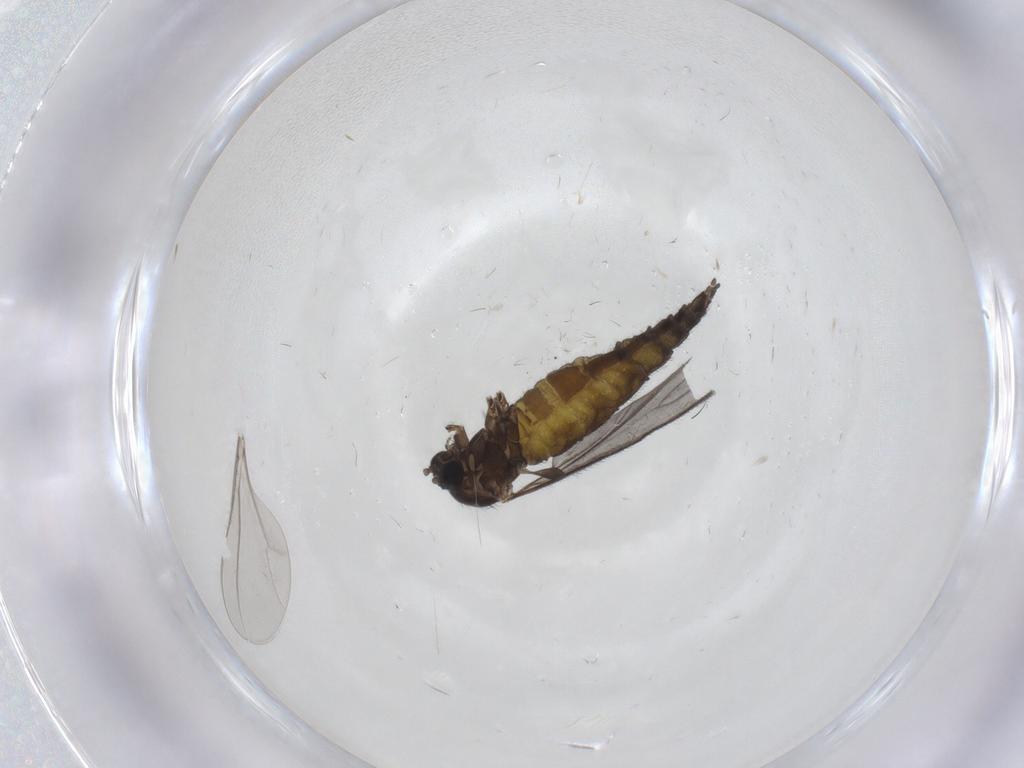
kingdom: Animalia
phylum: Arthropoda
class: Insecta
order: Diptera
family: Sciaridae
